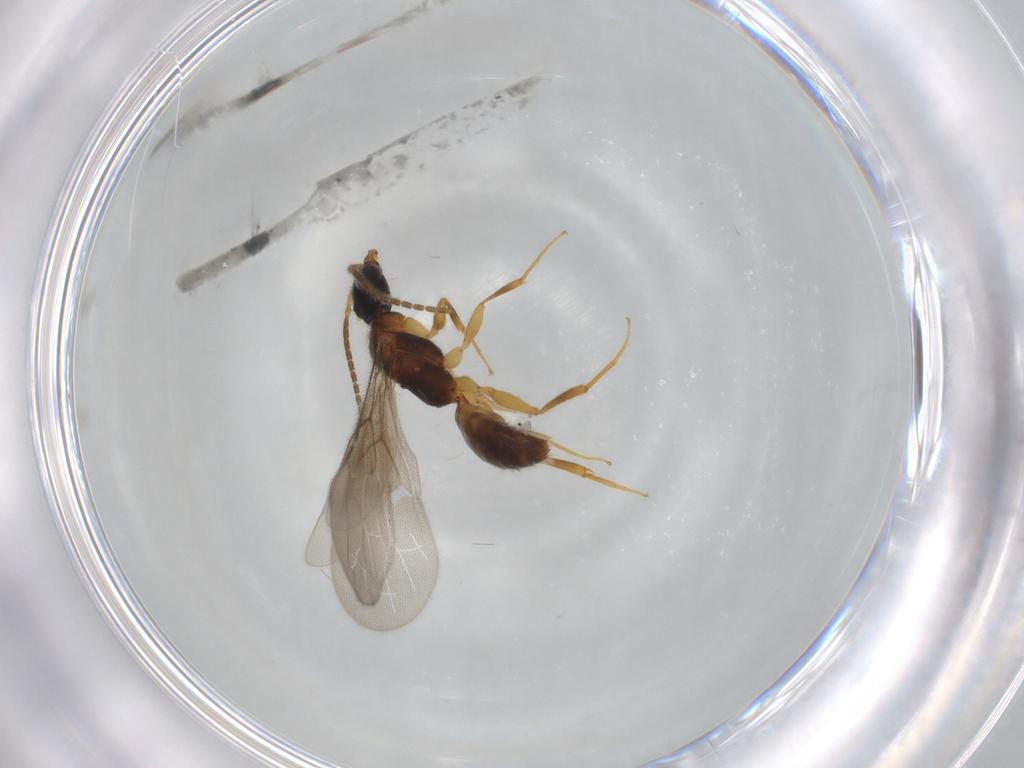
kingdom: Animalia
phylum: Arthropoda
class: Insecta
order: Hymenoptera
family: Bethylidae
